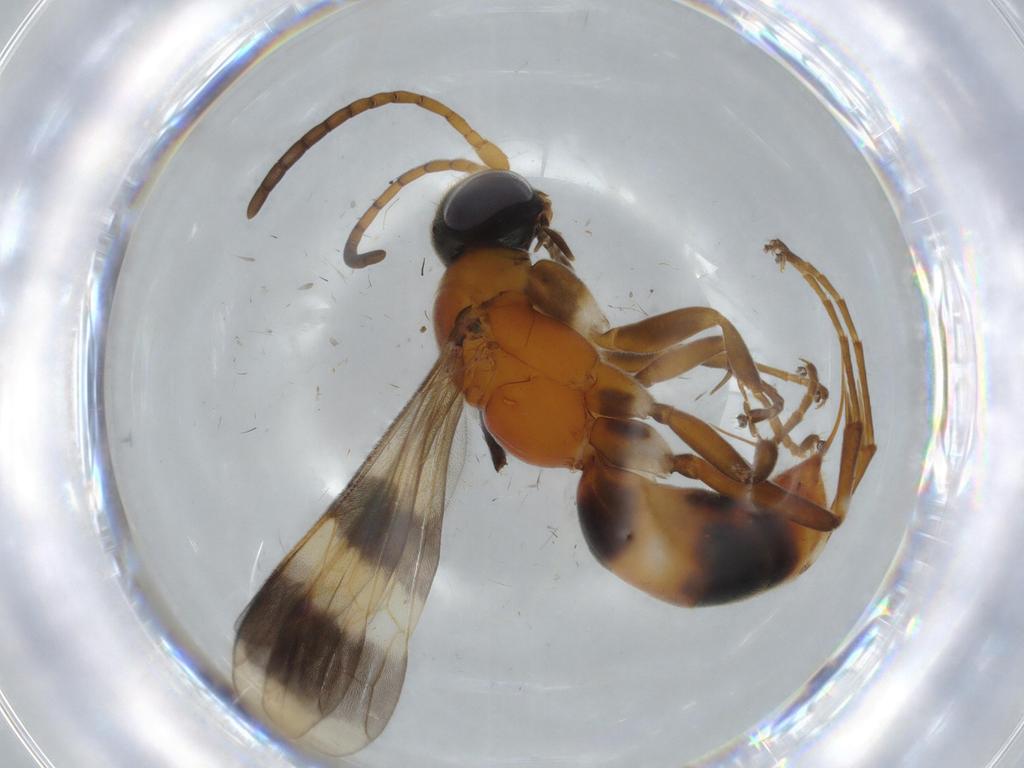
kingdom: Animalia
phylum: Arthropoda
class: Insecta
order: Hymenoptera
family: Pompilidae
